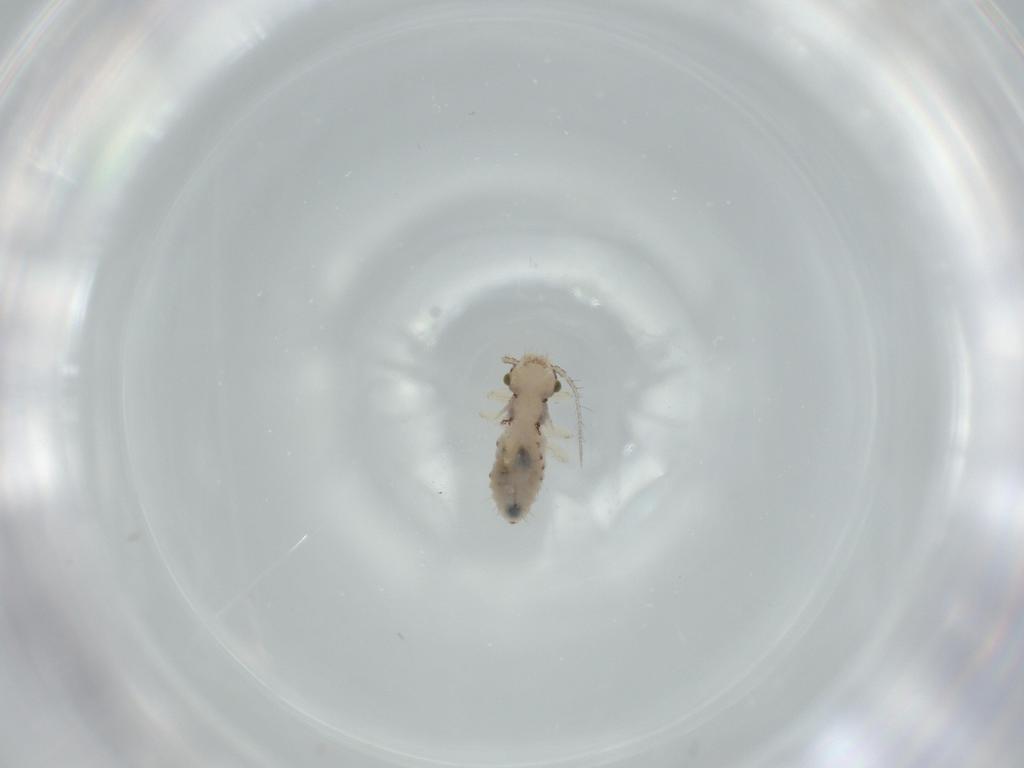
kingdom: Animalia
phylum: Arthropoda
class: Insecta
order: Psocodea
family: Pseudocaeciliidae
